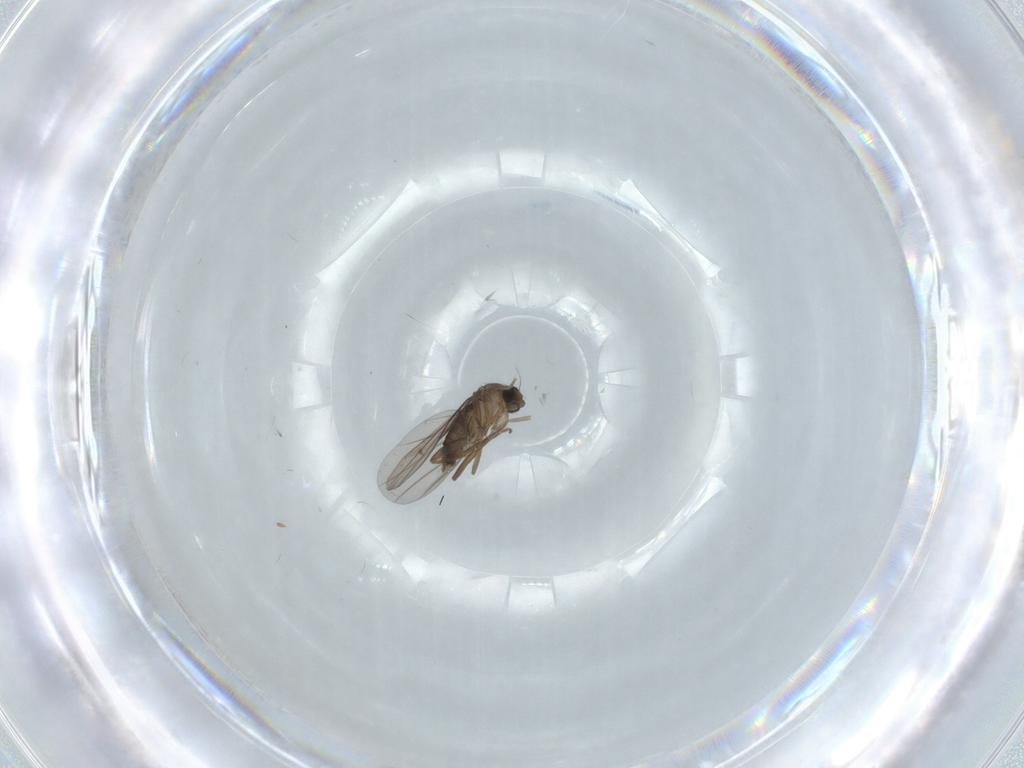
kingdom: Animalia
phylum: Arthropoda
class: Insecta
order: Diptera
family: Phoridae
